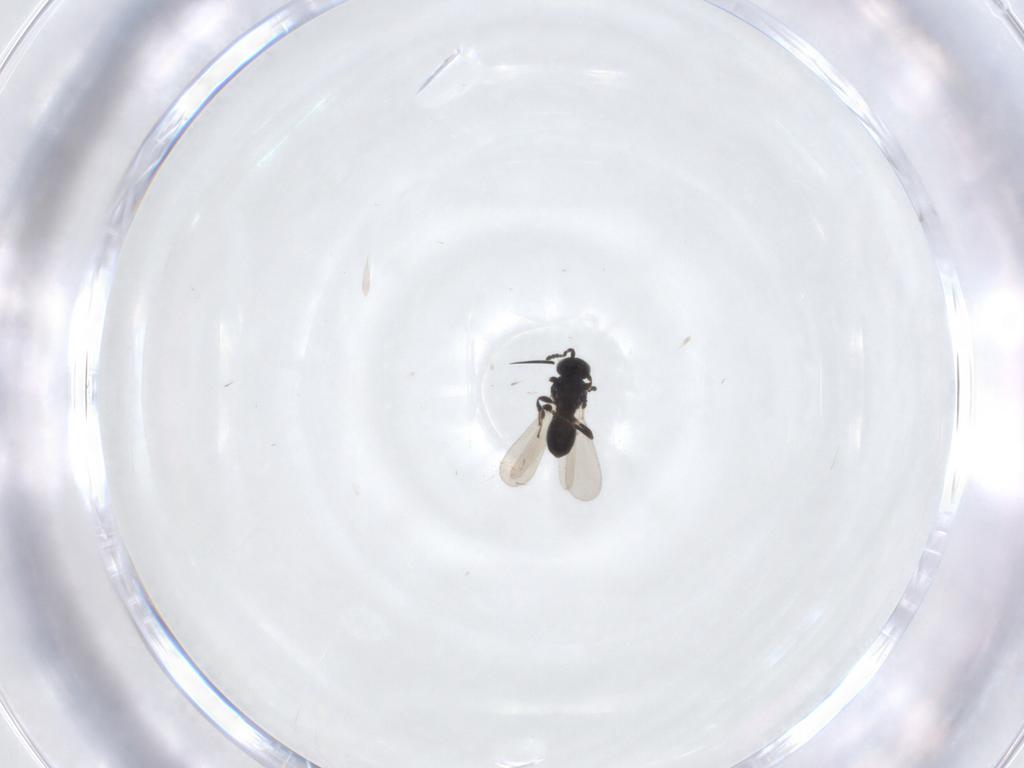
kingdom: Animalia
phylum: Arthropoda
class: Insecta
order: Hymenoptera
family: Platygastridae
